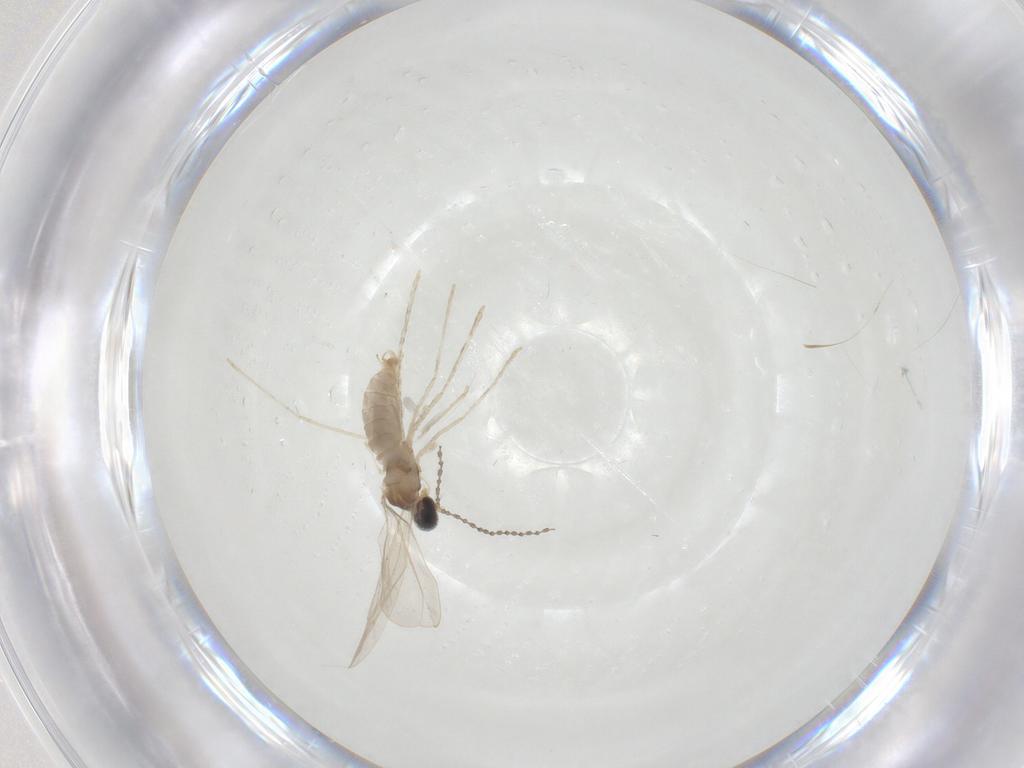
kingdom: Animalia
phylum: Arthropoda
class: Insecta
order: Diptera
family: Cecidomyiidae
